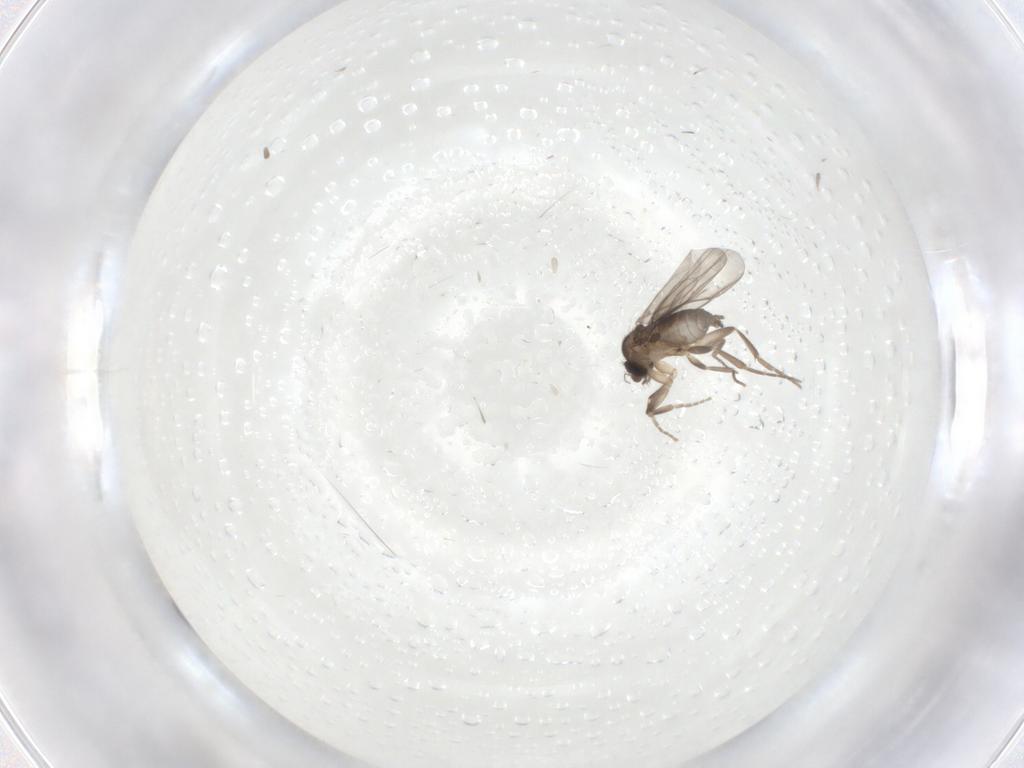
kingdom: Animalia
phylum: Arthropoda
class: Insecta
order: Diptera
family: Phoridae
